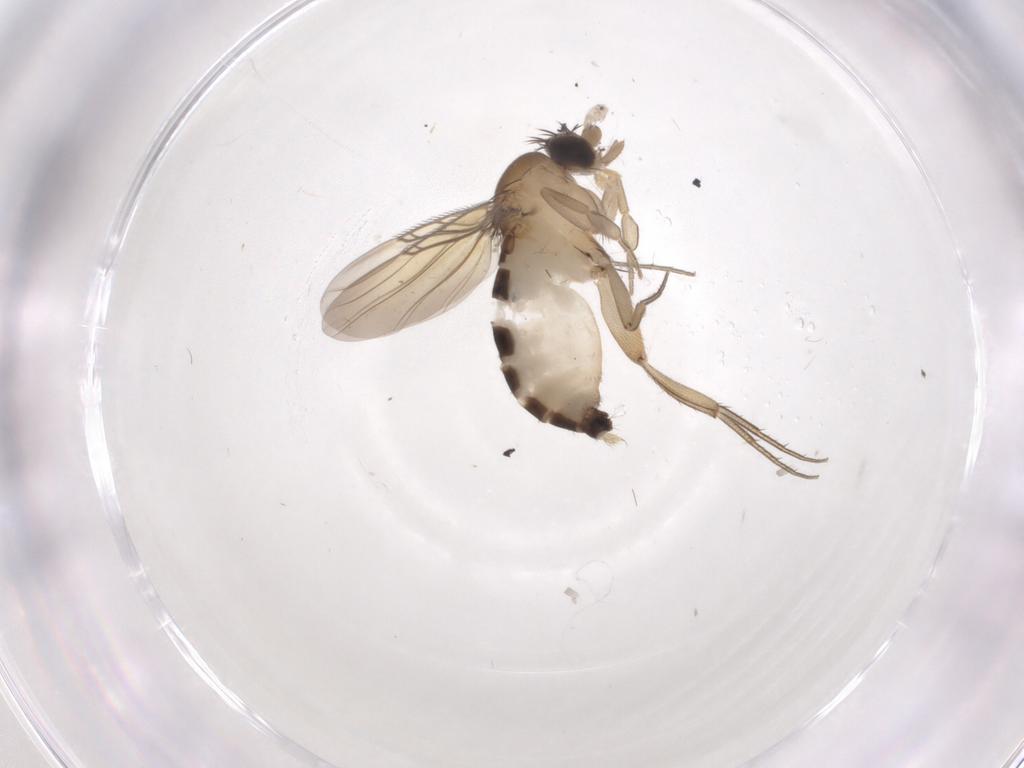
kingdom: Animalia
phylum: Arthropoda
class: Insecta
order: Diptera
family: Phoridae
